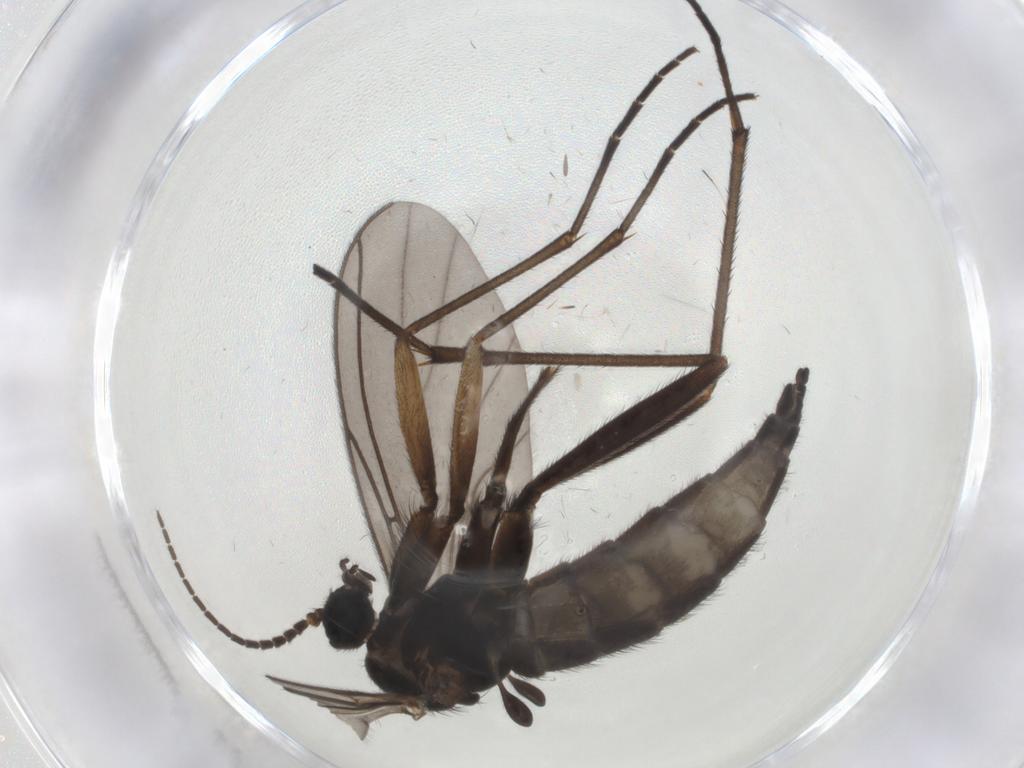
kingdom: Animalia
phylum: Arthropoda
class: Insecta
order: Diptera
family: Sciaridae
